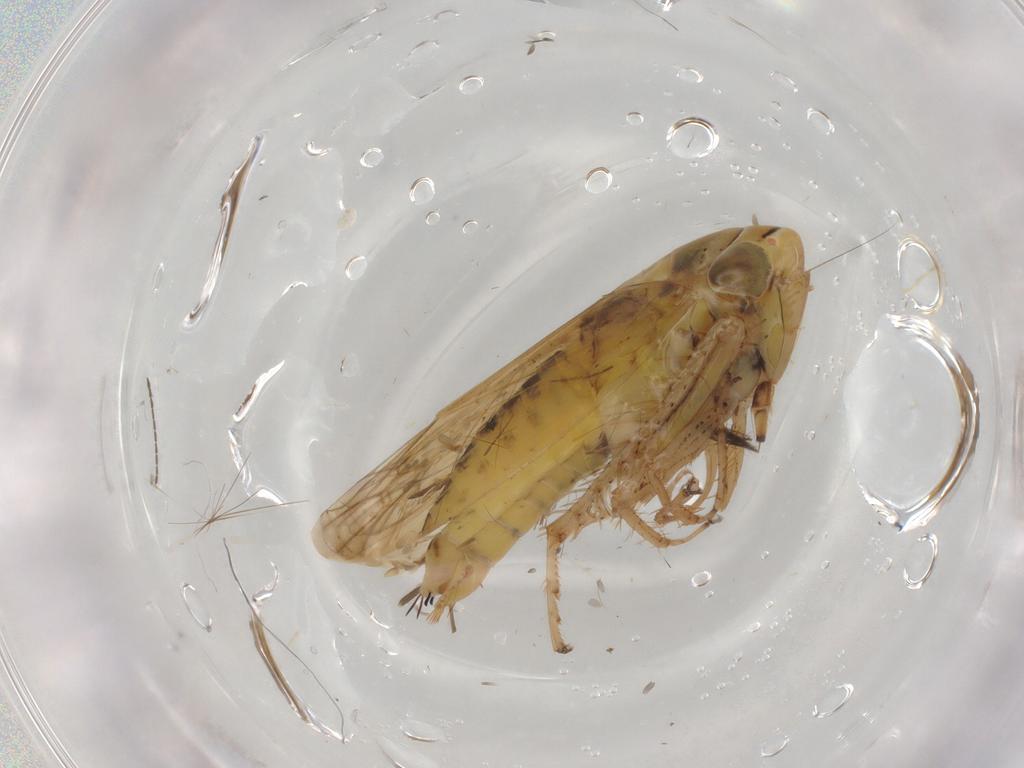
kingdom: Animalia
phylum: Arthropoda
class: Insecta
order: Hemiptera
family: Cicadellidae
